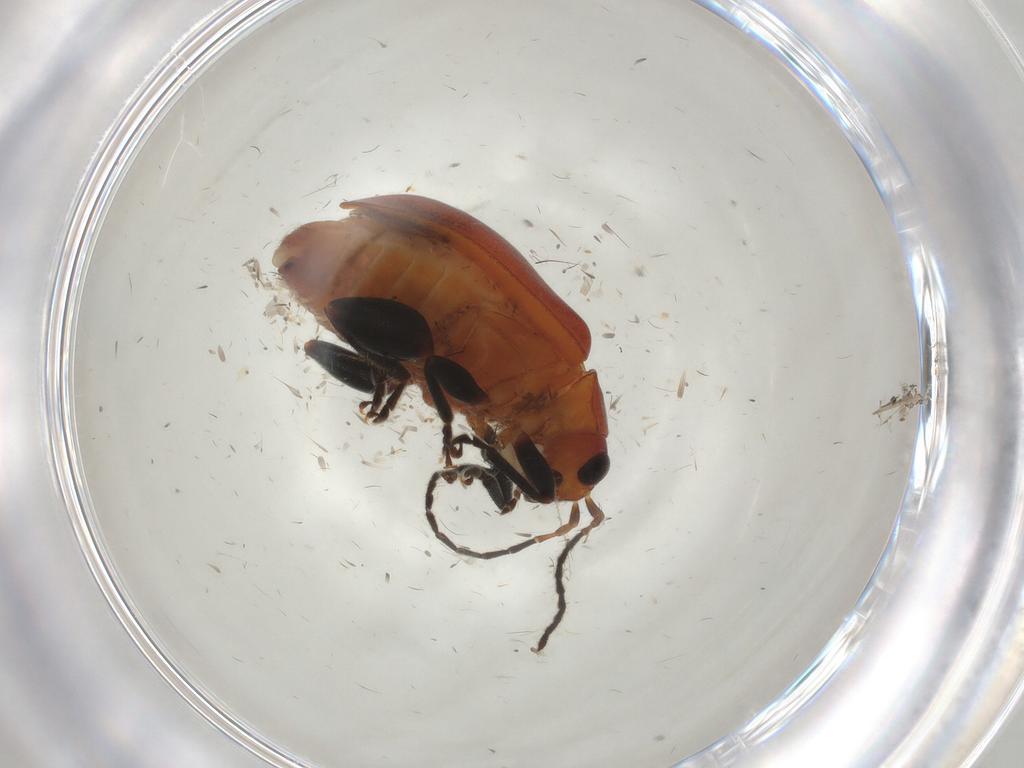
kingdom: Animalia
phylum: Arthropoda
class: Insecta
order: Coleoptera
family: Chrysomelidae
